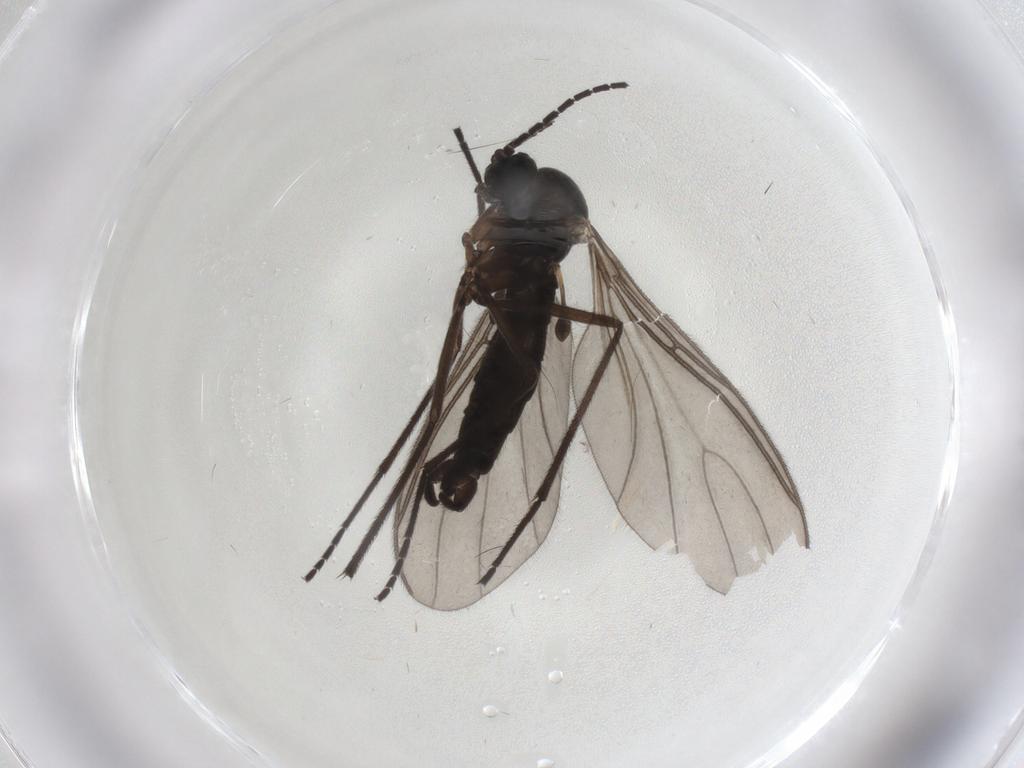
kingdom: Animalia
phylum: Arthropoda
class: Insecta
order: Diptera
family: Sciaridae
